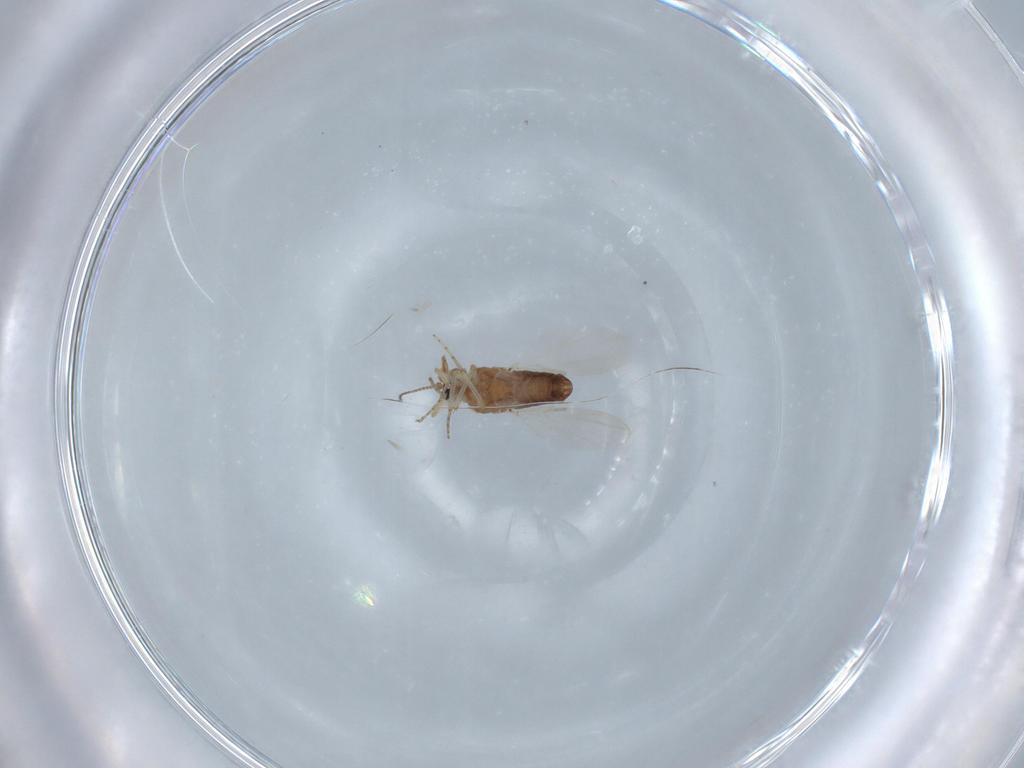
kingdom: Animalia
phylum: Arthropoda
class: Insecta
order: Diptera
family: Ceratopogonidae
